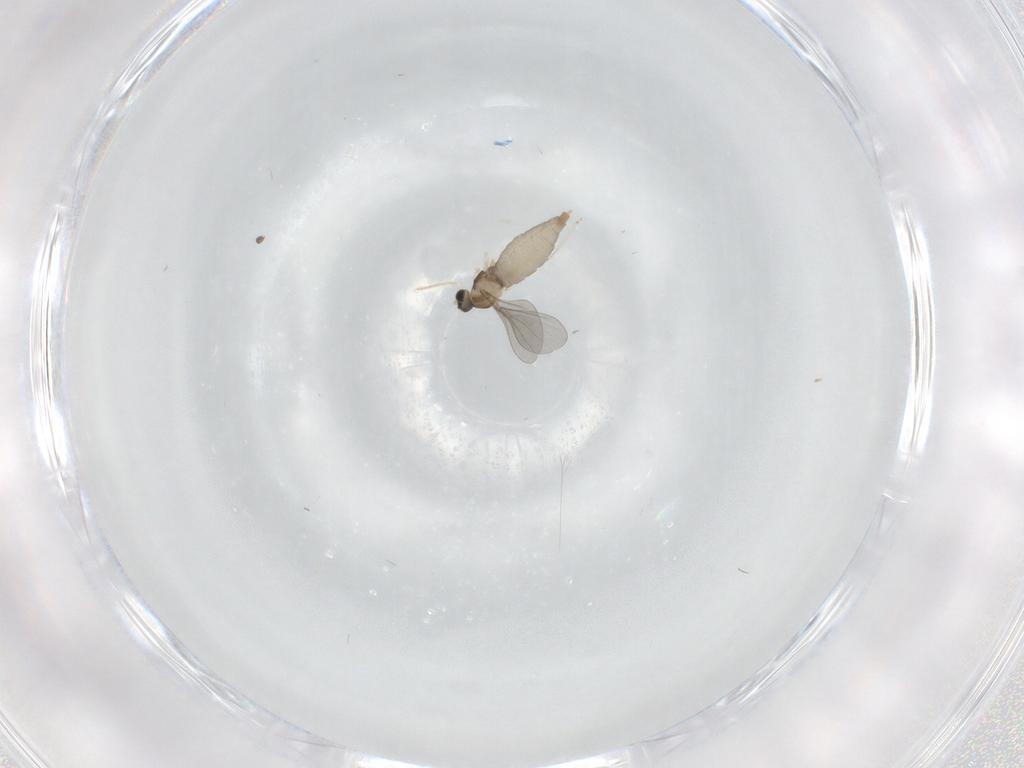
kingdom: Animalia
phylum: Arthropoda
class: Insecta
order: Diptera
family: Cecidomyiidae
